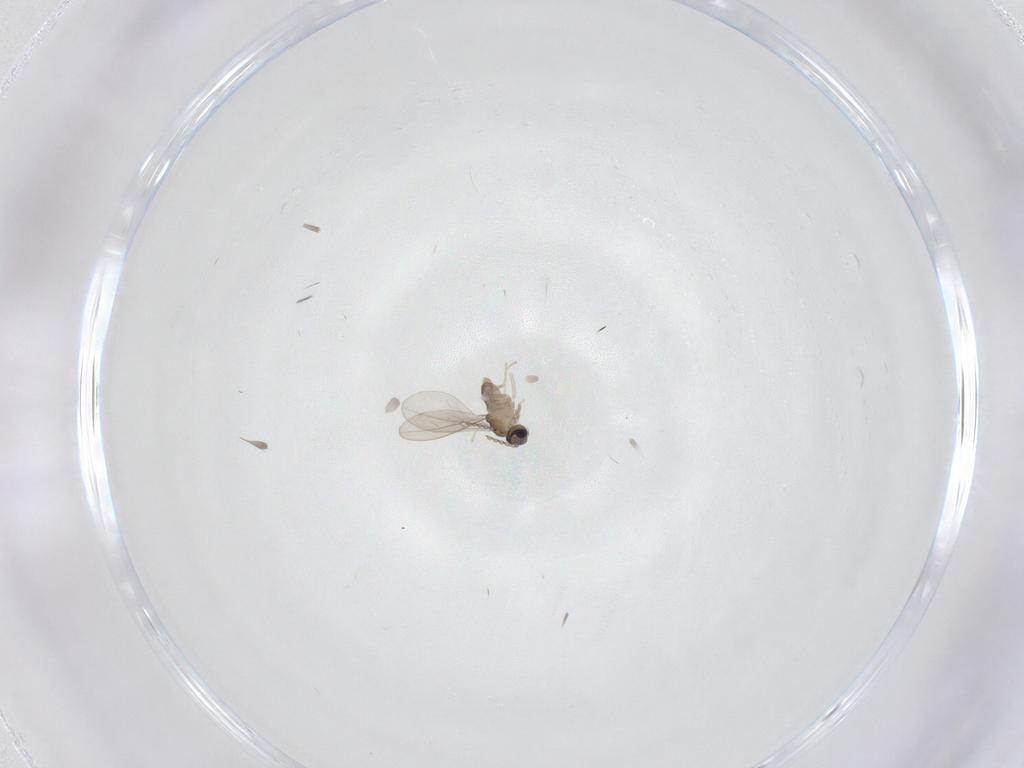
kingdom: Animalia
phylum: Arthropoda
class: Insecta
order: Diptera
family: Cecidomyiidae
